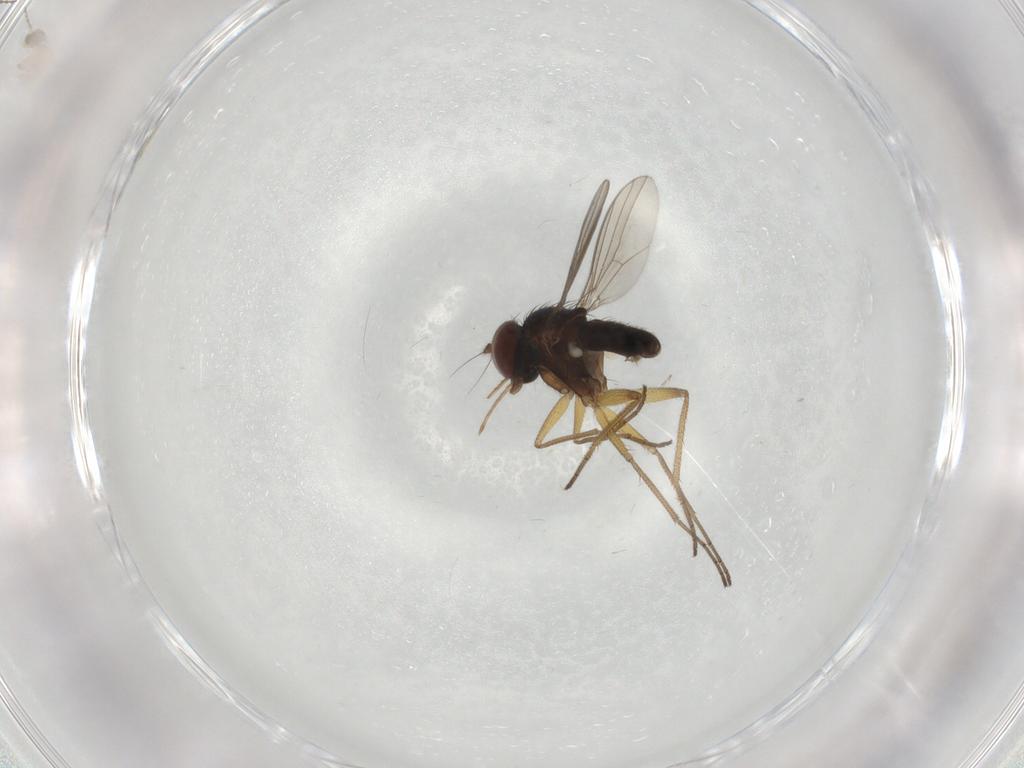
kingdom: Animalia
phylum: Arthropoda
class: Insecta
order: Diptera
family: Dolichopodidae
